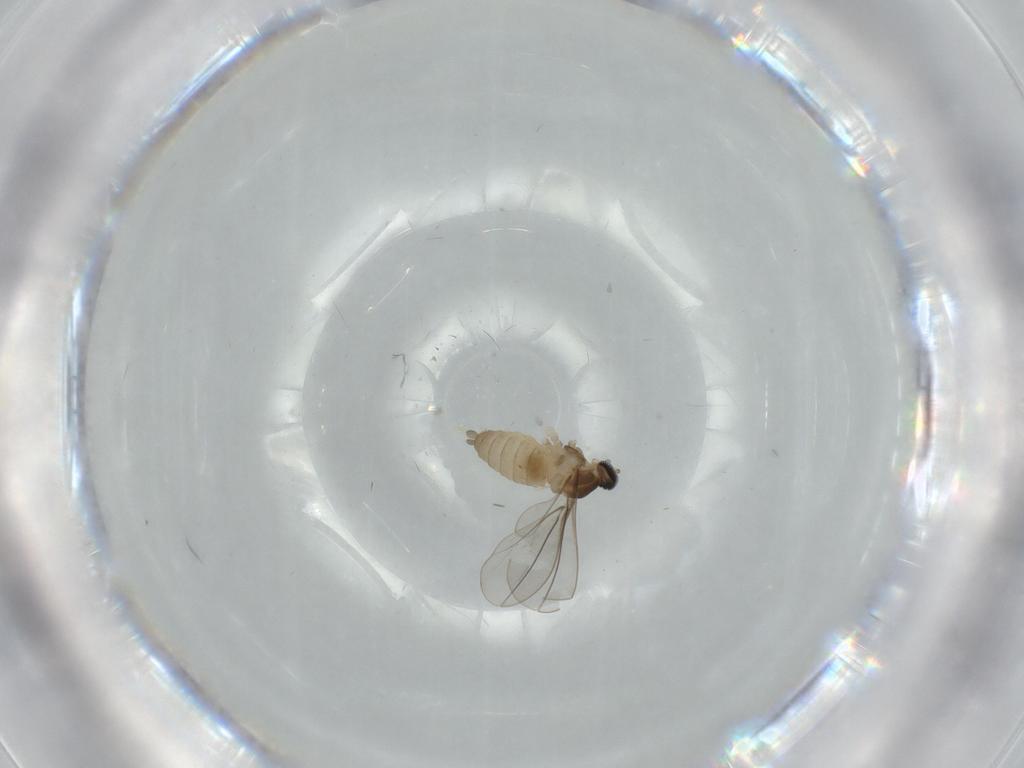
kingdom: Animalia
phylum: Arthropoda
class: Insecta
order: Diptera
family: Cecidomyiidae
